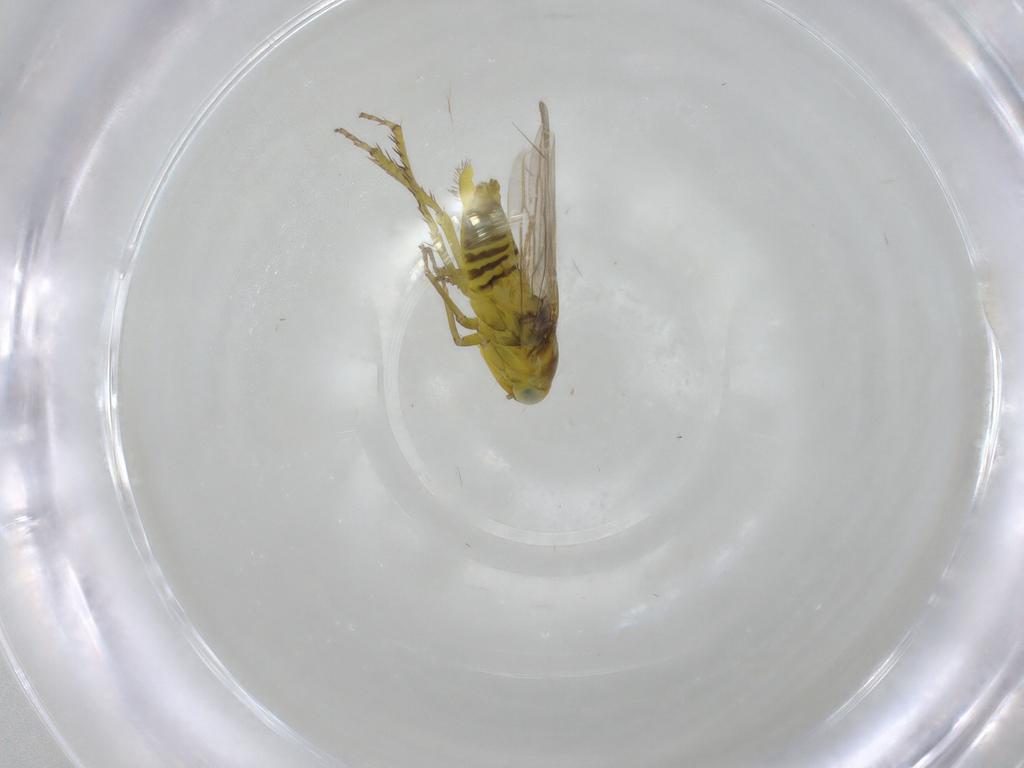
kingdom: Animalia
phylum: Arthropoda
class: Insecta
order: Hemiptera
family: Cicadellidae
